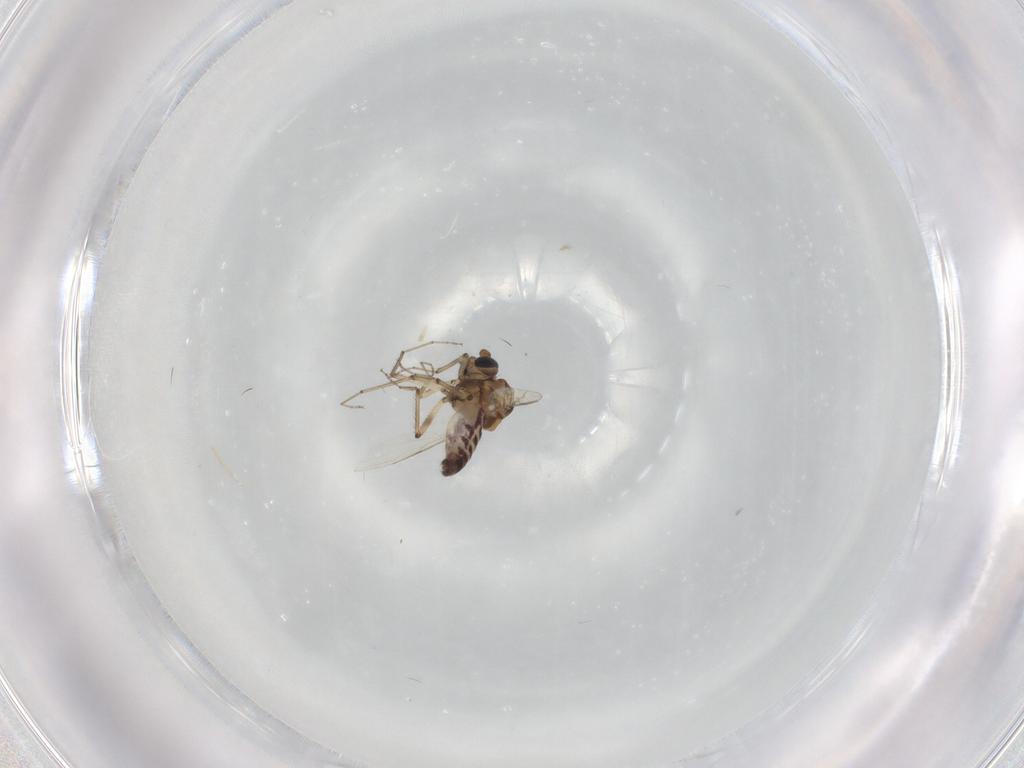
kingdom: Animalia
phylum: Arthropoda
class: Insecta
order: Diptera
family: Ceratopogonidae
